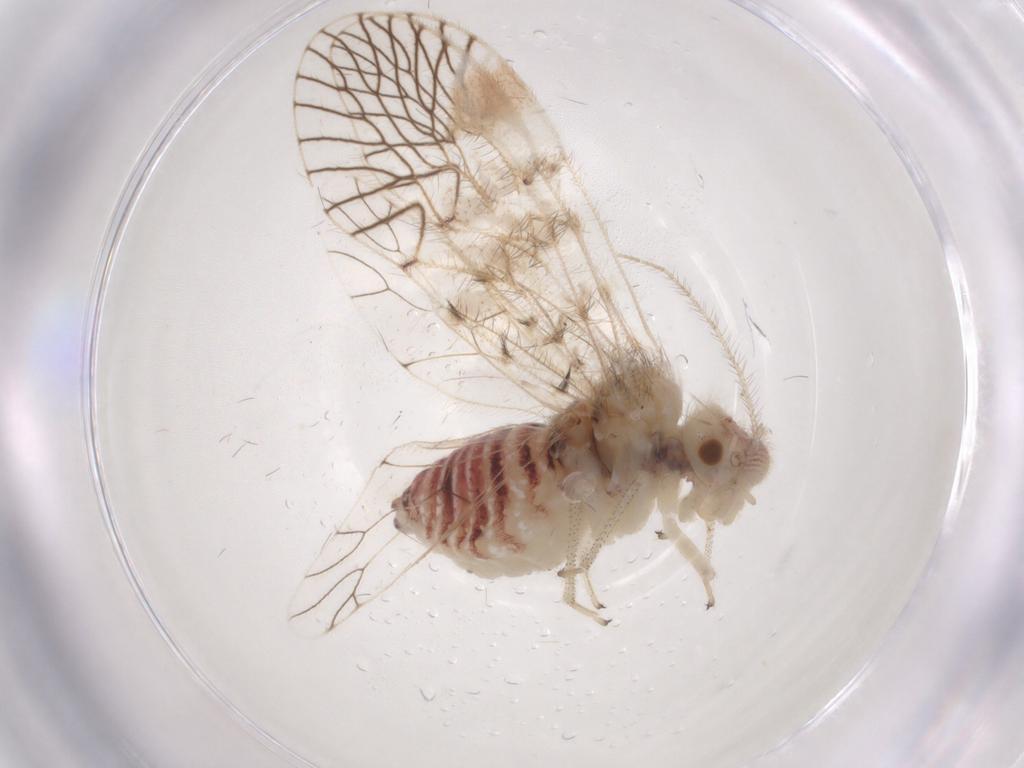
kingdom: Animalia
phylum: Arthropoda
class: Insecta
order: Psocodea
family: Amphipsocidae
